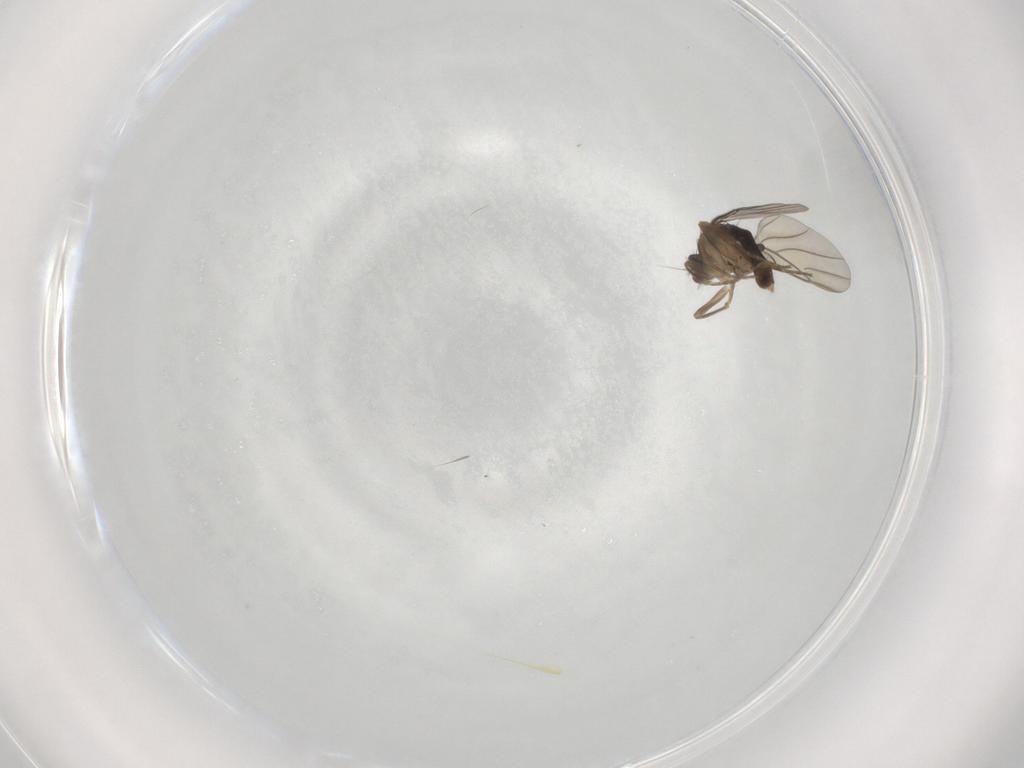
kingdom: Animalia
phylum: Arthropoda
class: Insecta
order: Diptera
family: Phoridae
